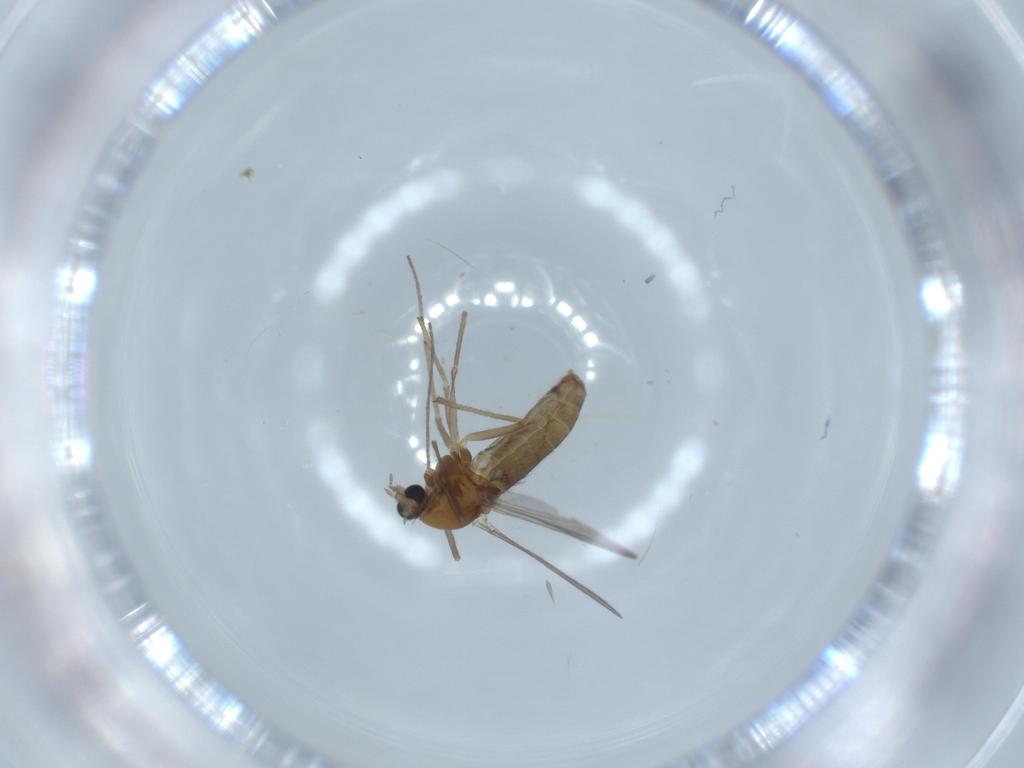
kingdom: Animalia
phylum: Arthropoda
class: Insecta
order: Diptera
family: Chironomidae
